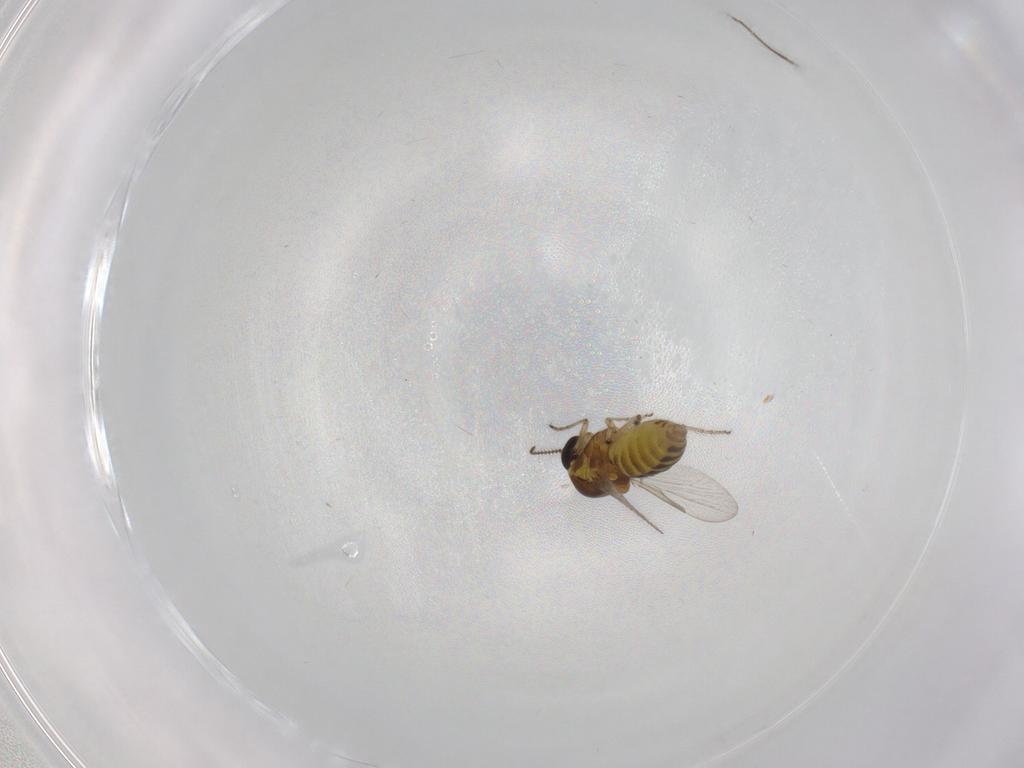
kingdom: Animalia
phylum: Arthropoda
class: Insecta
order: Diptera
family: Ceratopogonidae
